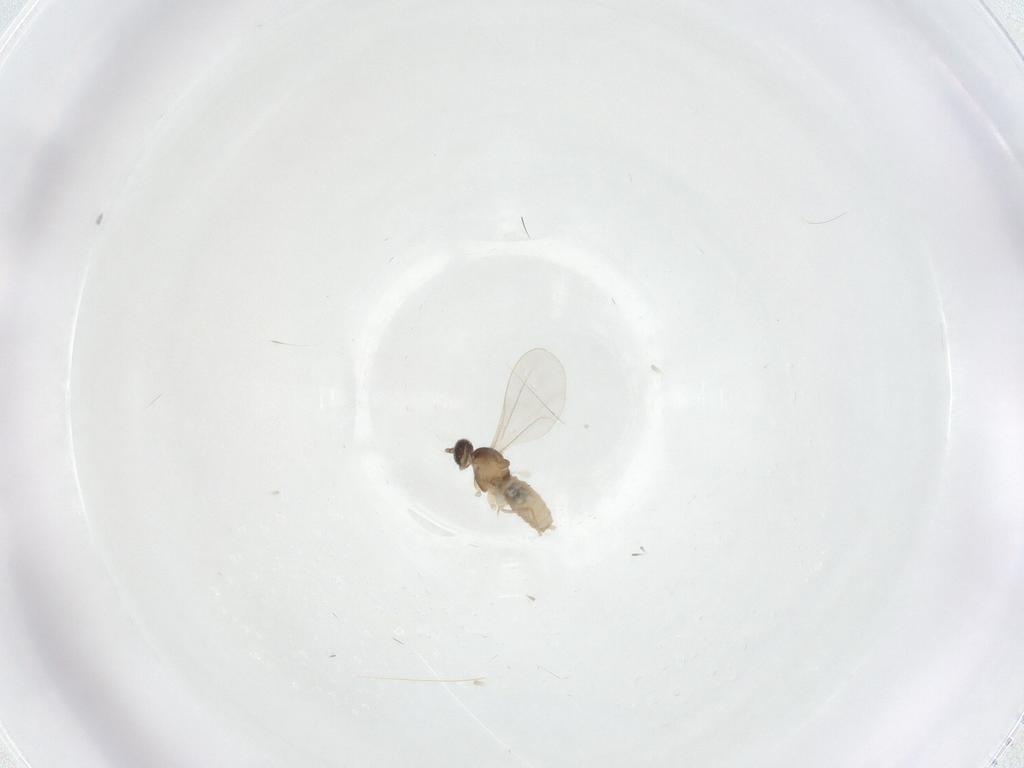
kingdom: Animalia
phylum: Arthropoda
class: Insecta
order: Diptera
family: Cecidomyiidae
